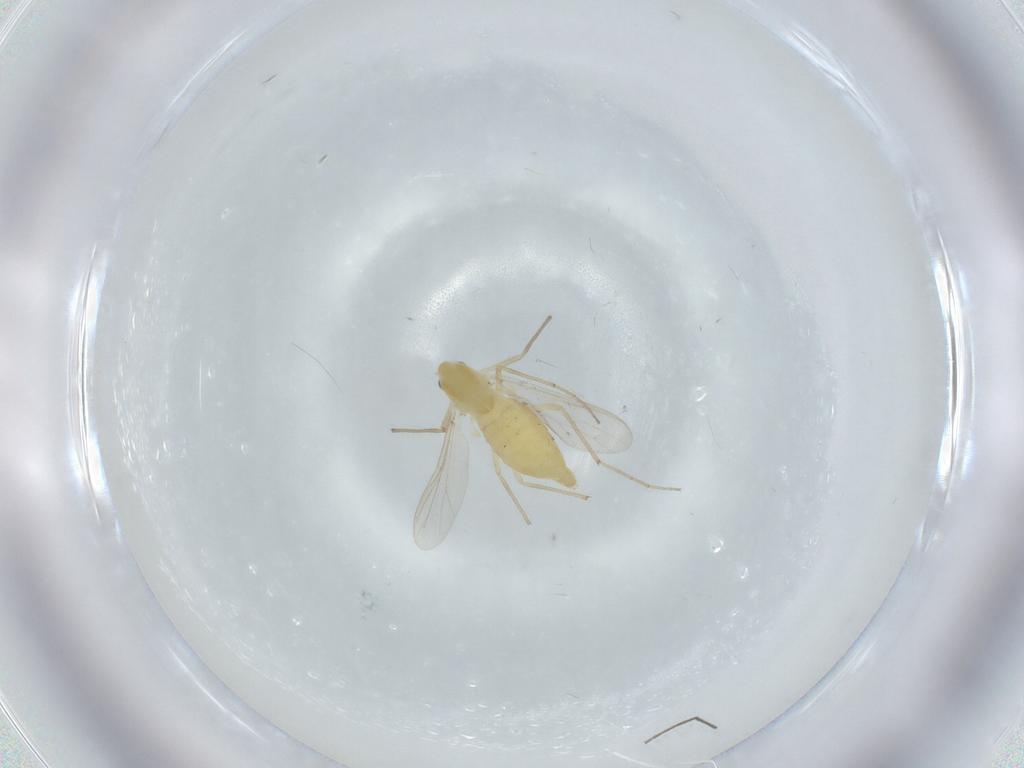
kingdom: Animalia
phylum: Arthropoda
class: Insecta
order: Diptera
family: Chironomidae
